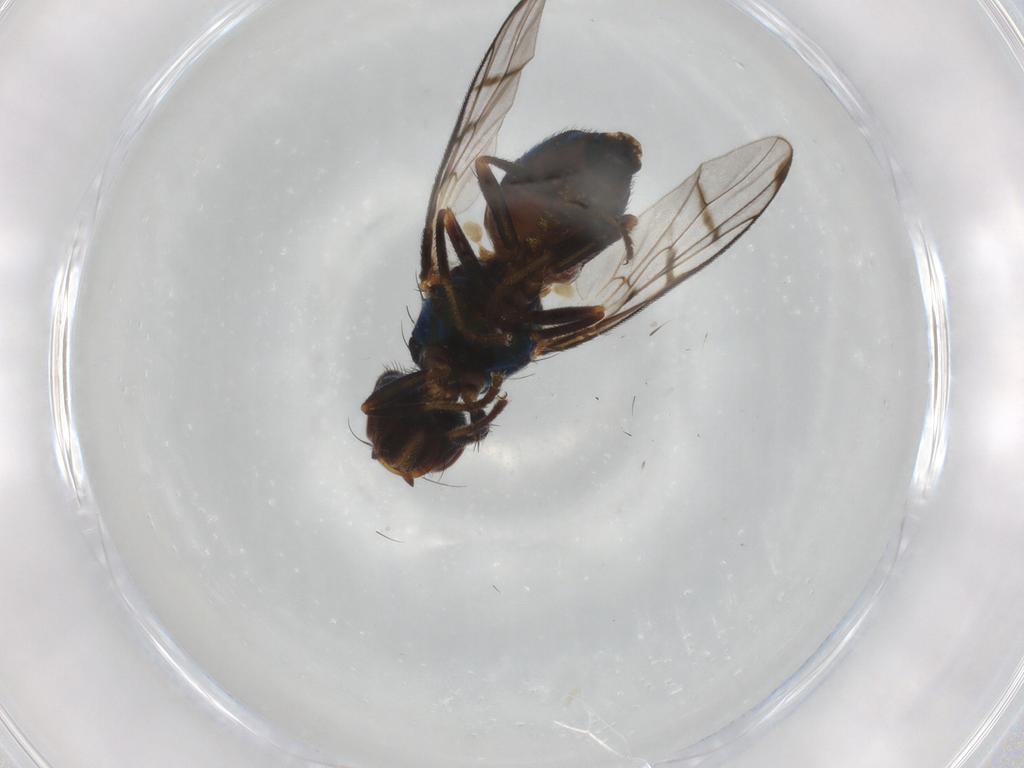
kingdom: Animalia
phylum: Arthropoda
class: Insecta
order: Diptera
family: Platystomatidae
